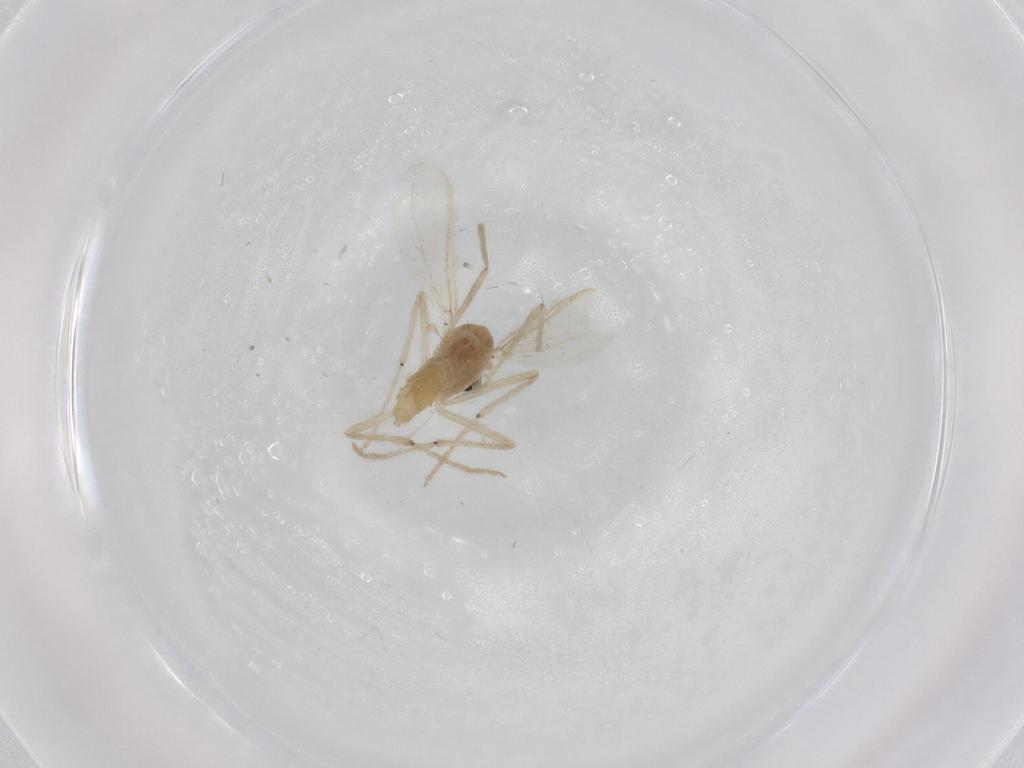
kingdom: Animalia
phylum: Arthropoda
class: Insecta
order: Diptera
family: Chironomidae
